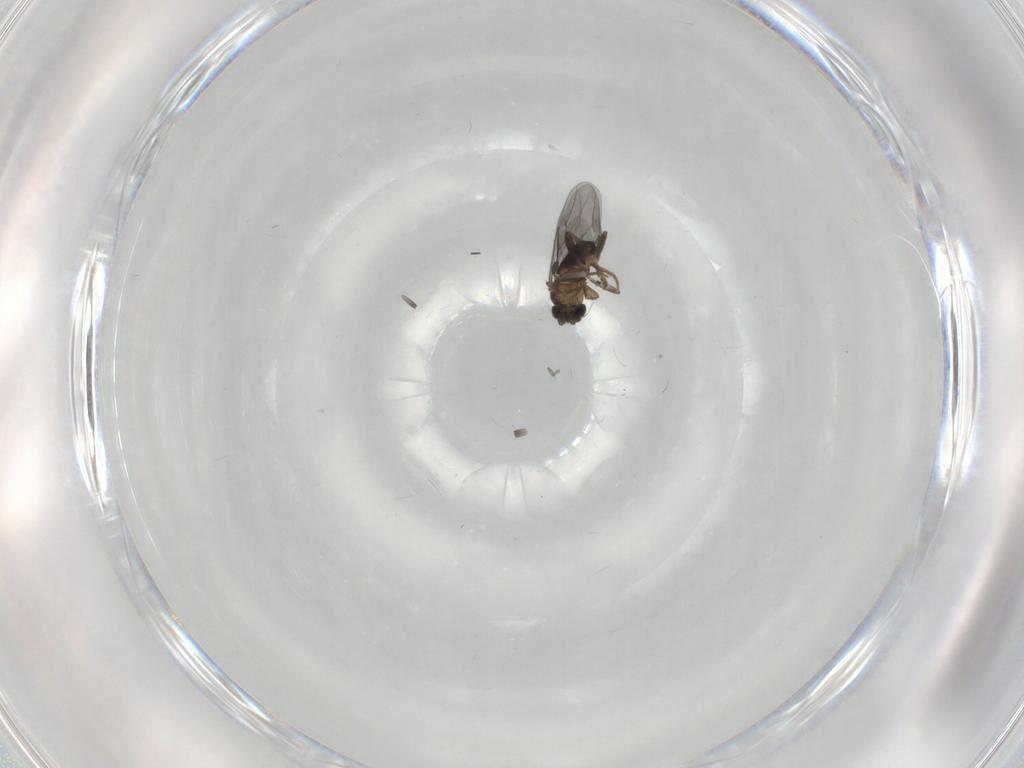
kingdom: Animalia
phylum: Arthropoda
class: Insecta
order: Diptera
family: Phoridae
